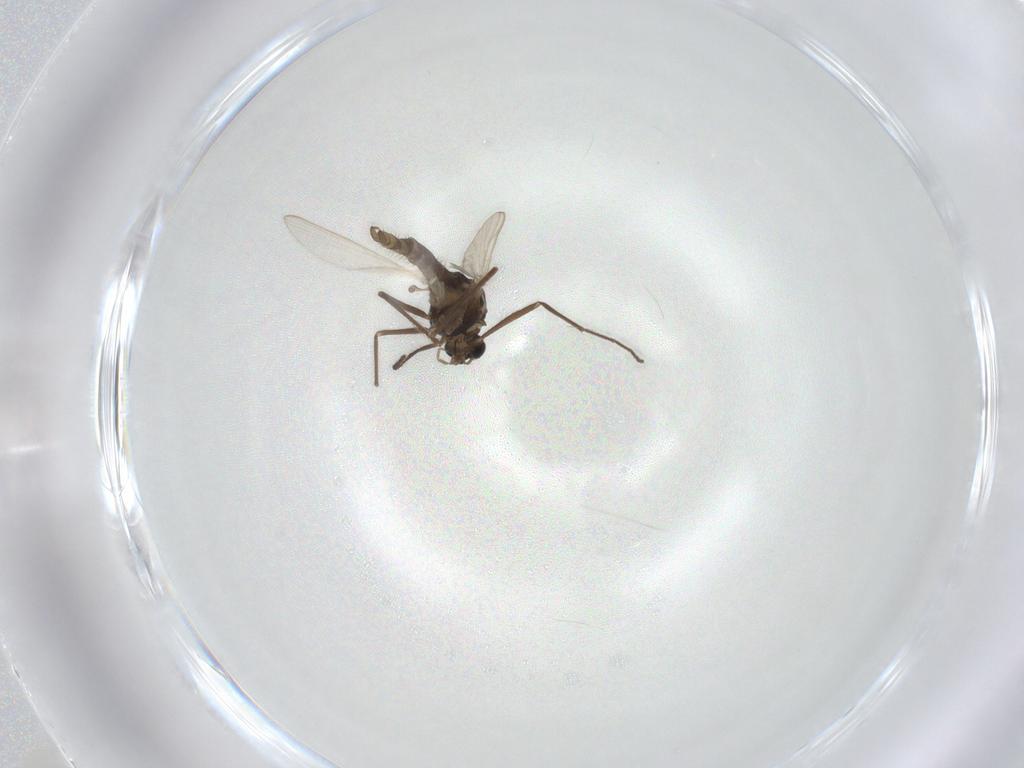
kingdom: Animalia
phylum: Arthropoda
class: Insecta
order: Diptera
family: Chironomidae
